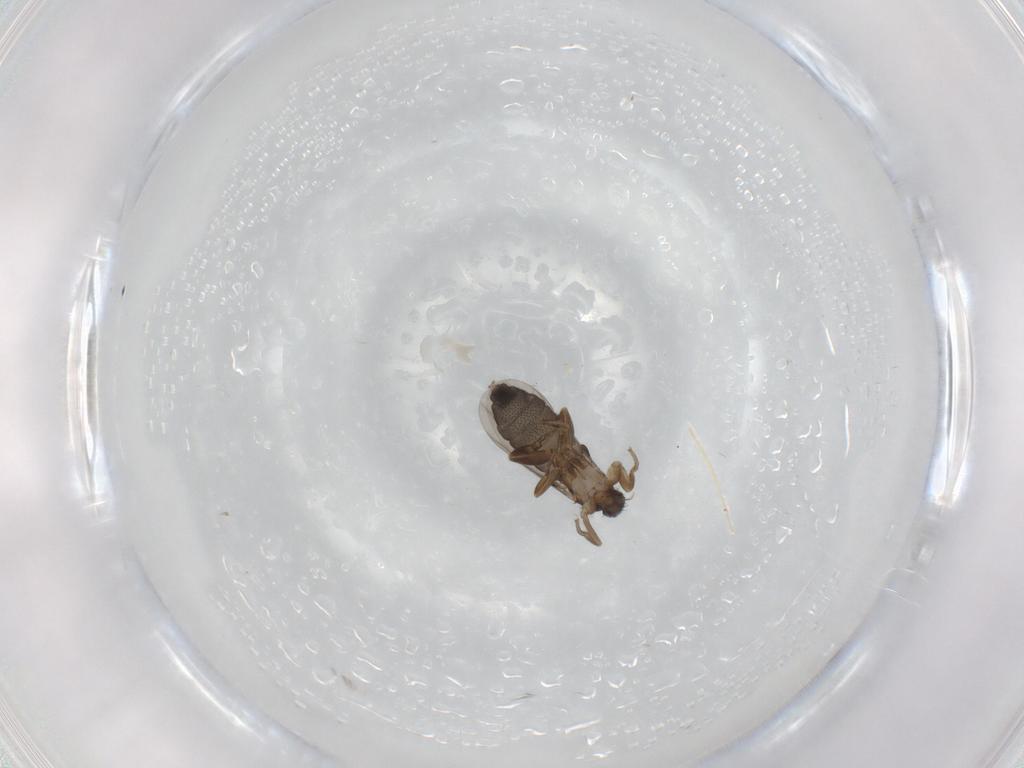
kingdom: Animalia
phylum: Arthropoda
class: Insecta
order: Diptera
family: Phoridae
